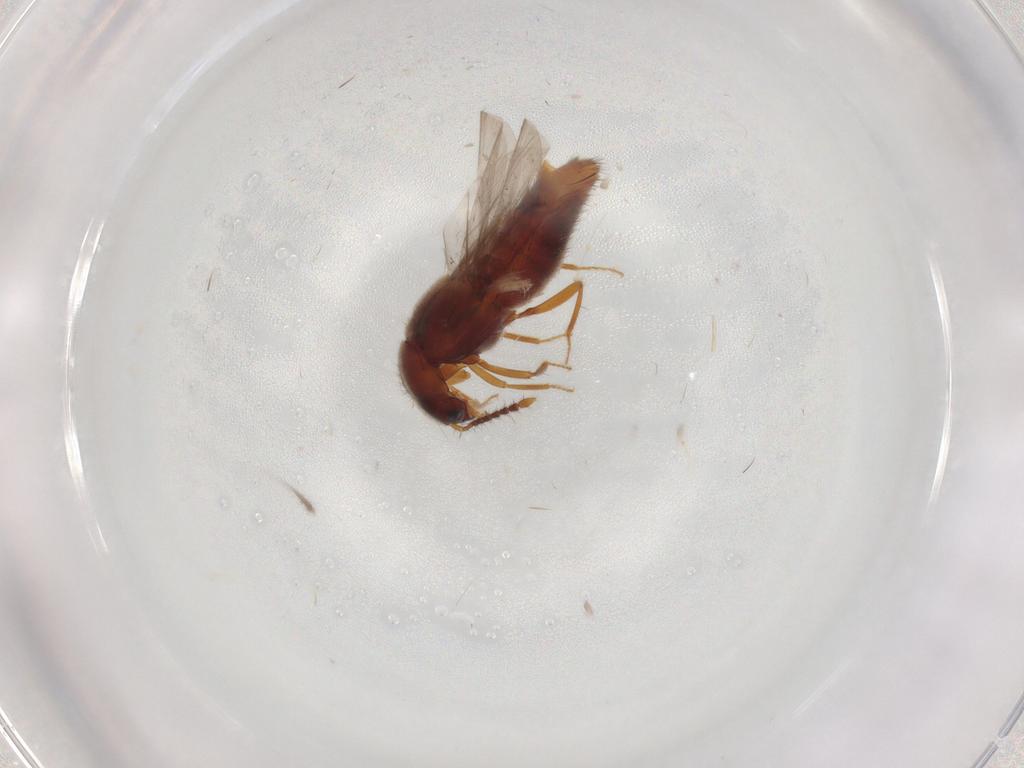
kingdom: Animalia
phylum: Arthropoda
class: Insecta
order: Coleoptera
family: Staphylinidae
